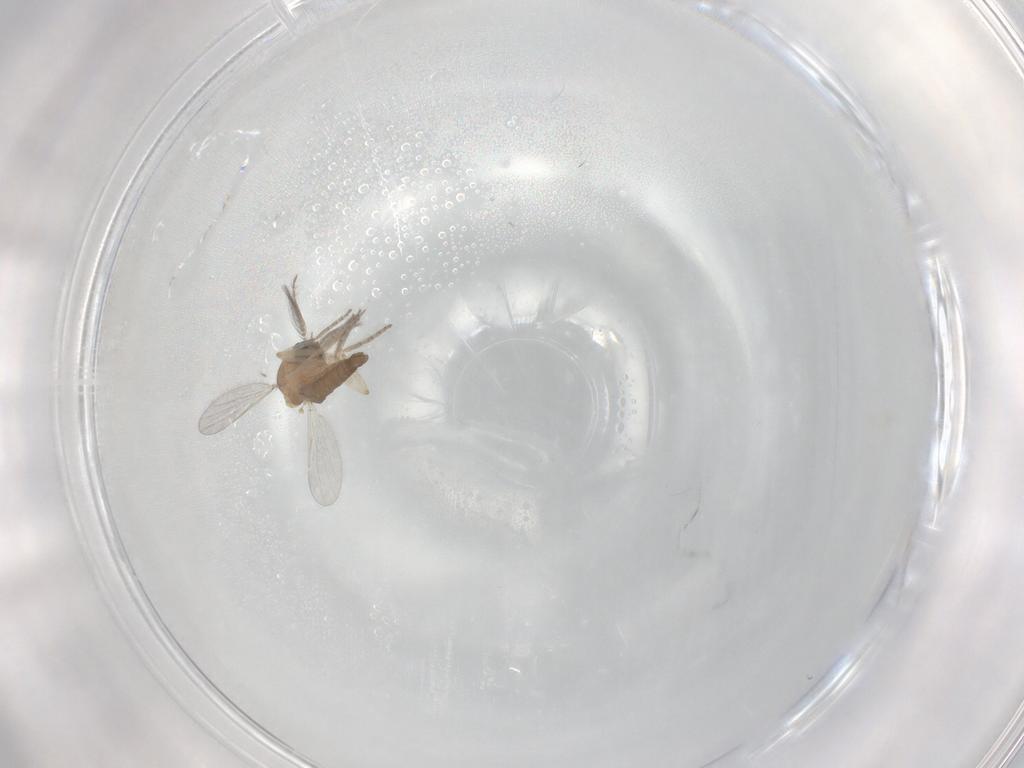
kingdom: Animalia
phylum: Arthropoda
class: Insecta
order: Diptera
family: Ceratopogonidae
